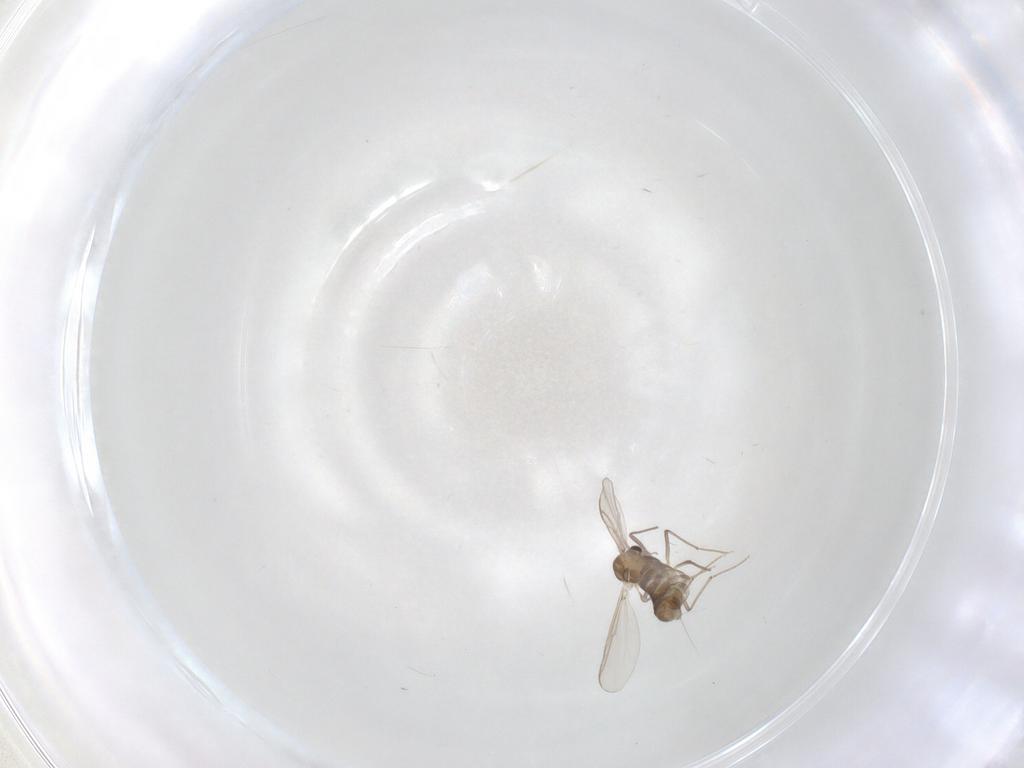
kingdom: Animalia
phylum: Arthropoda
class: Insecta
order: Diptera
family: Chironomidae
